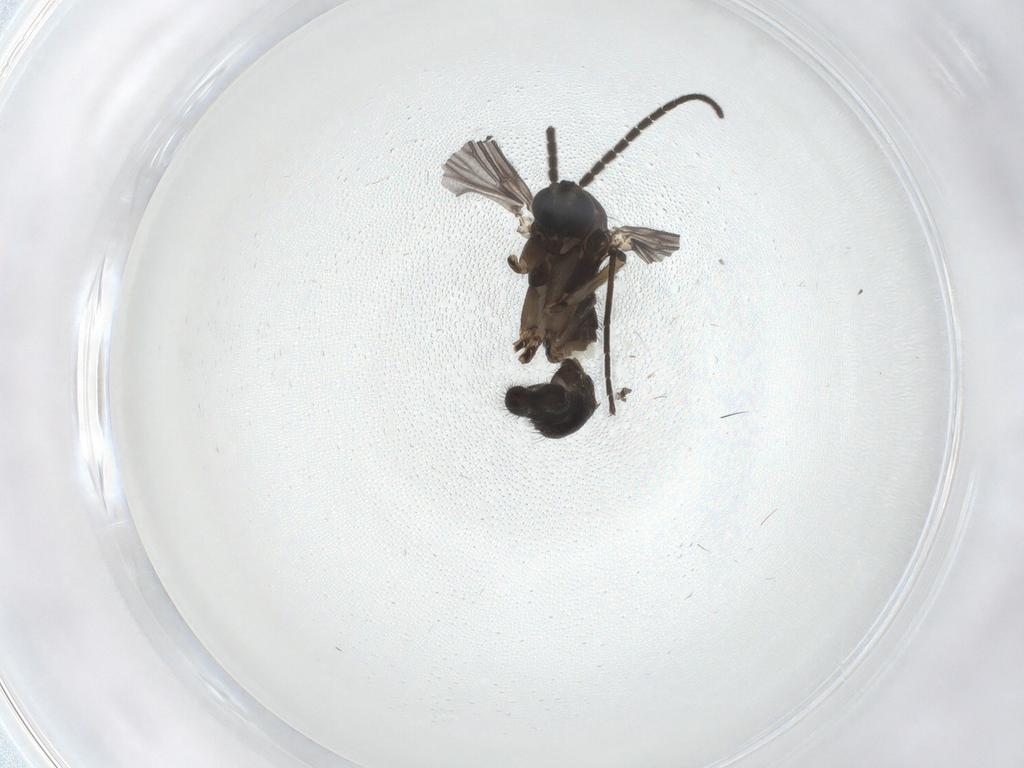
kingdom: Animalia
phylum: Arthropoda
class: Insecta
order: Diptera
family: Sciaridae
